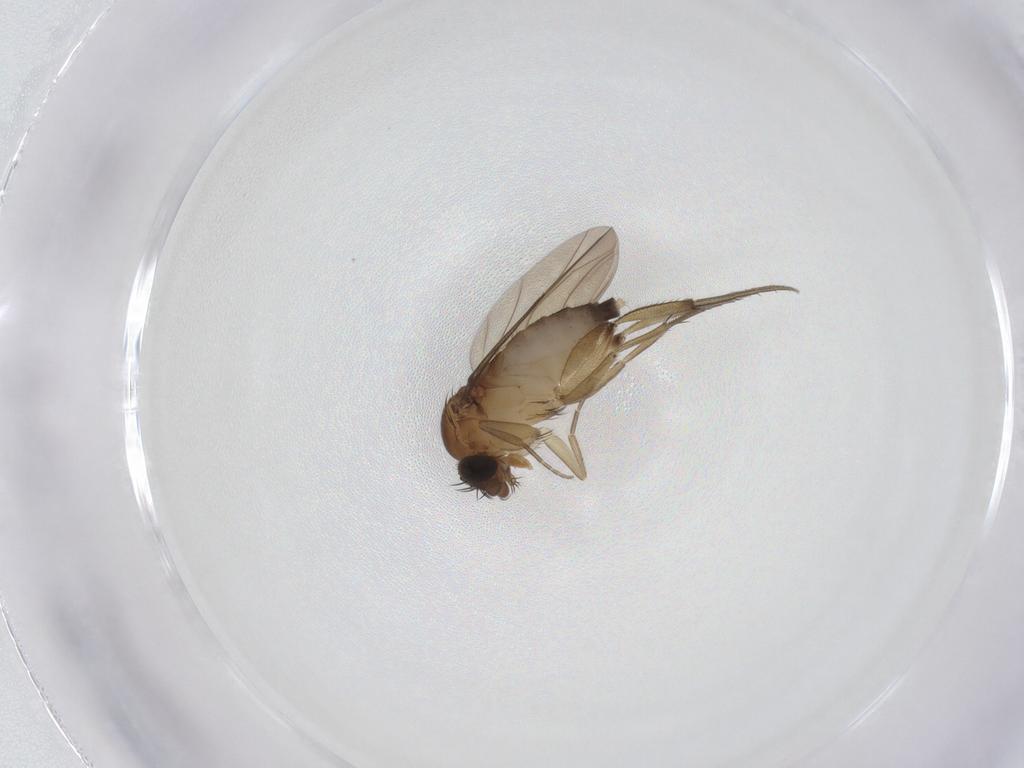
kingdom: Animalia
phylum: Arthropoda
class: Insecta
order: Diptera
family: Phoridae
